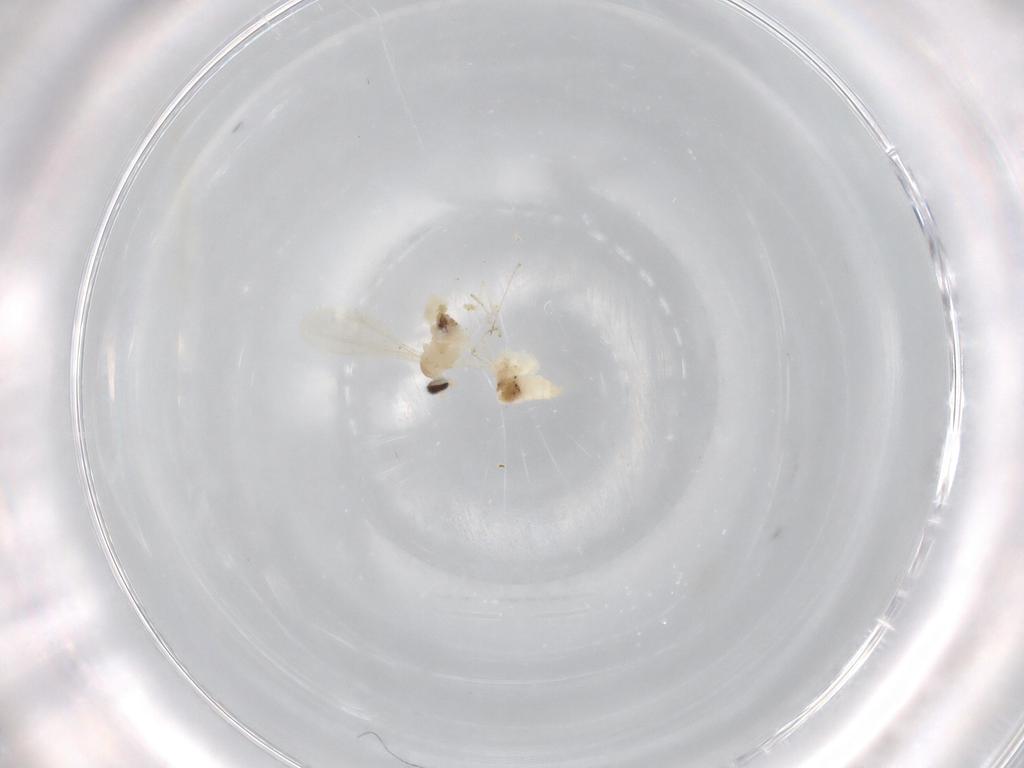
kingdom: Animalia
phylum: Arthropoda
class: Insecta
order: Diptera
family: Cecidomyiidae
